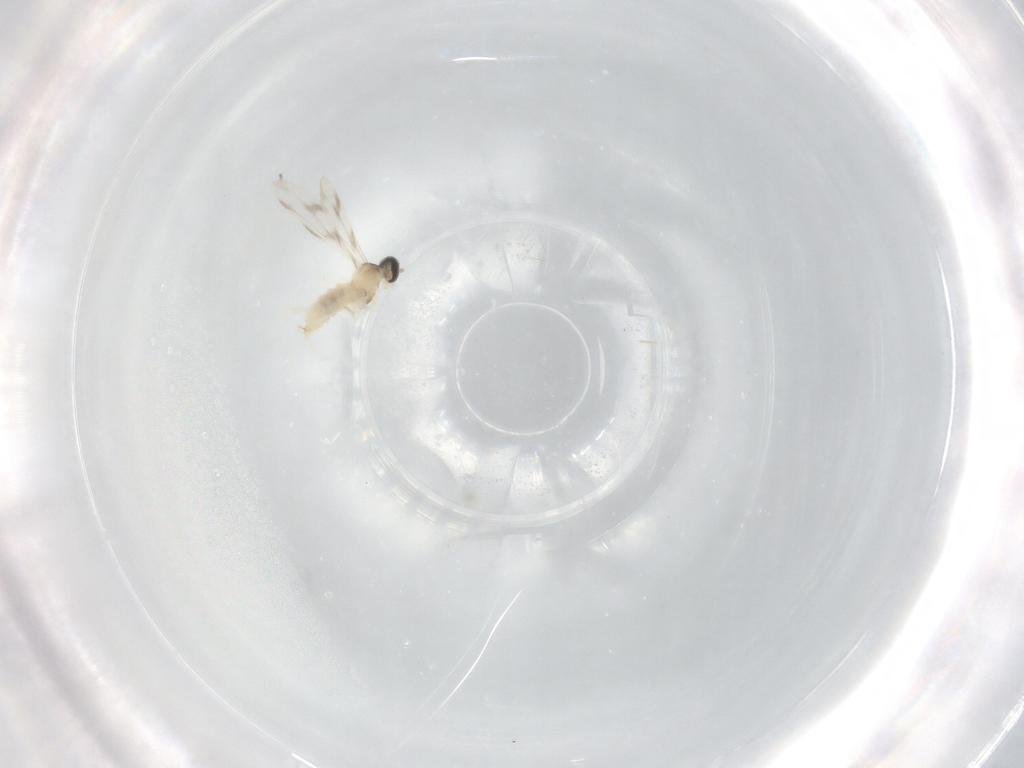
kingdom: Animalia
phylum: Arthropoda
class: Insecta
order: Diptera
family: Cecidomyiidae
